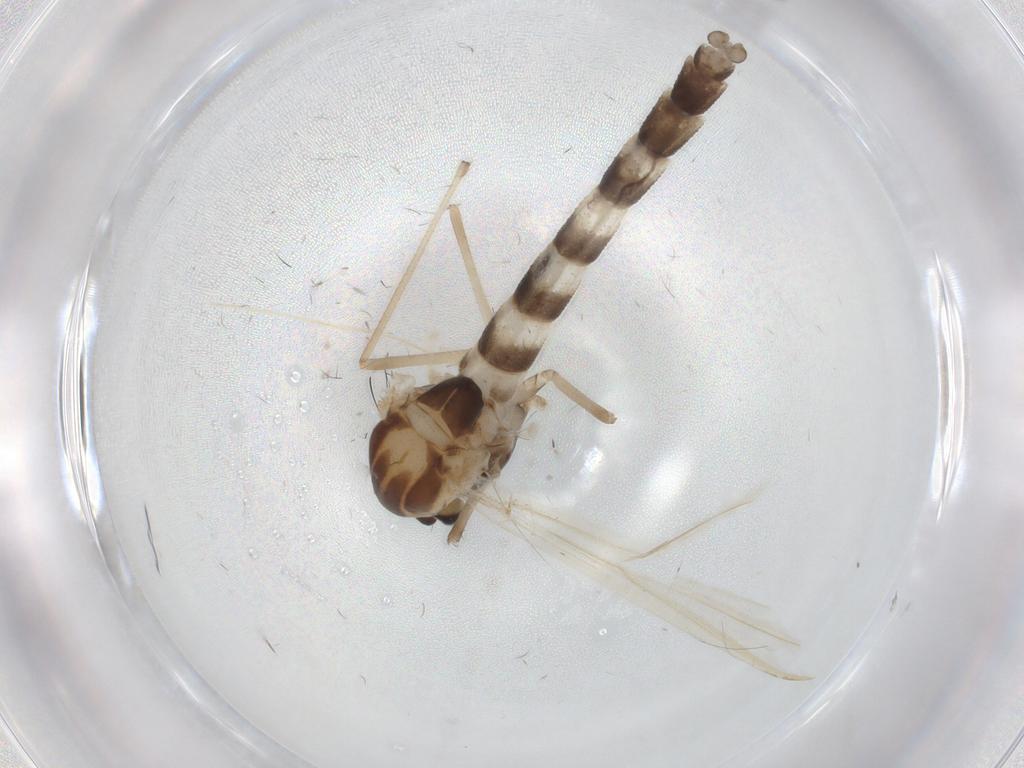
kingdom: Animalia
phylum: Arthropoda
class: Insecta
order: Diptera
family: Chironomidae
